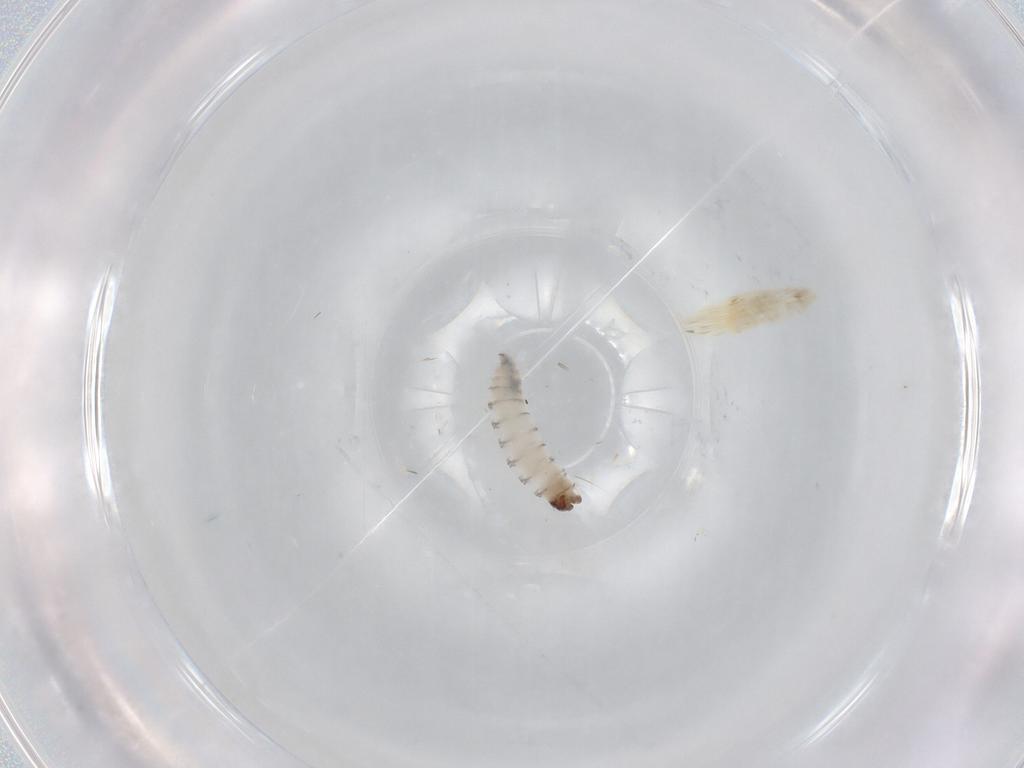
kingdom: Animalia
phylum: Arthropoda
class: Insecta
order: Diptera
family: Sarcophagidae
